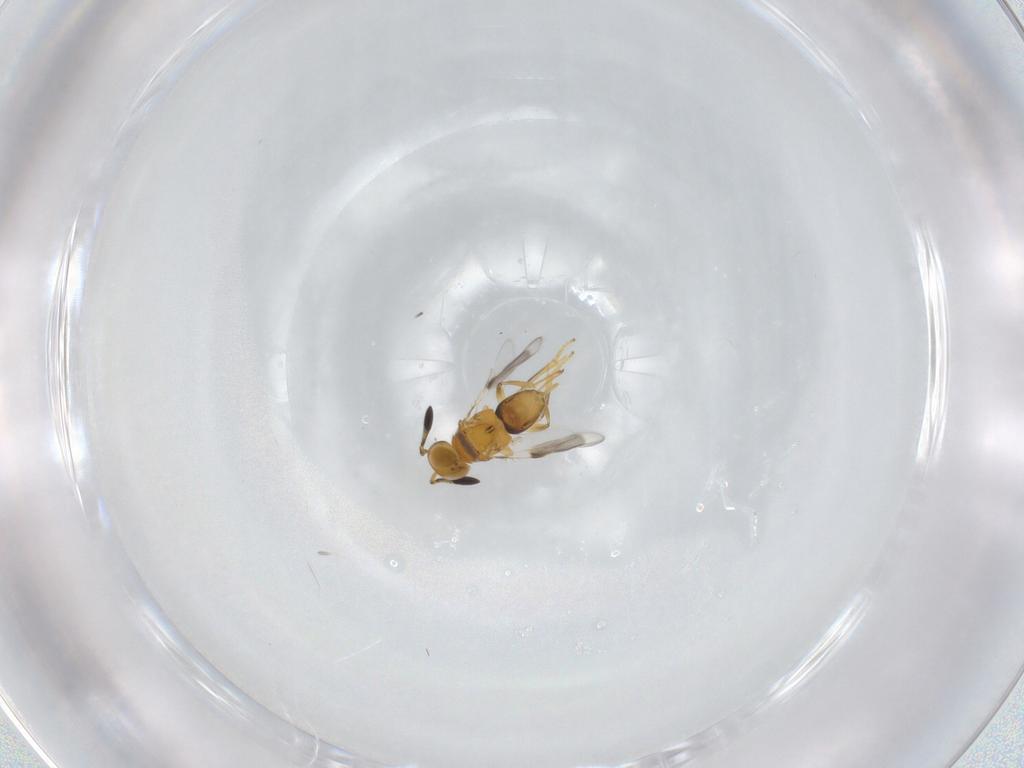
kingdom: Animalia
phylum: Arthropoda
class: Insecta
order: Hymenoptera
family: Encyrtidae
